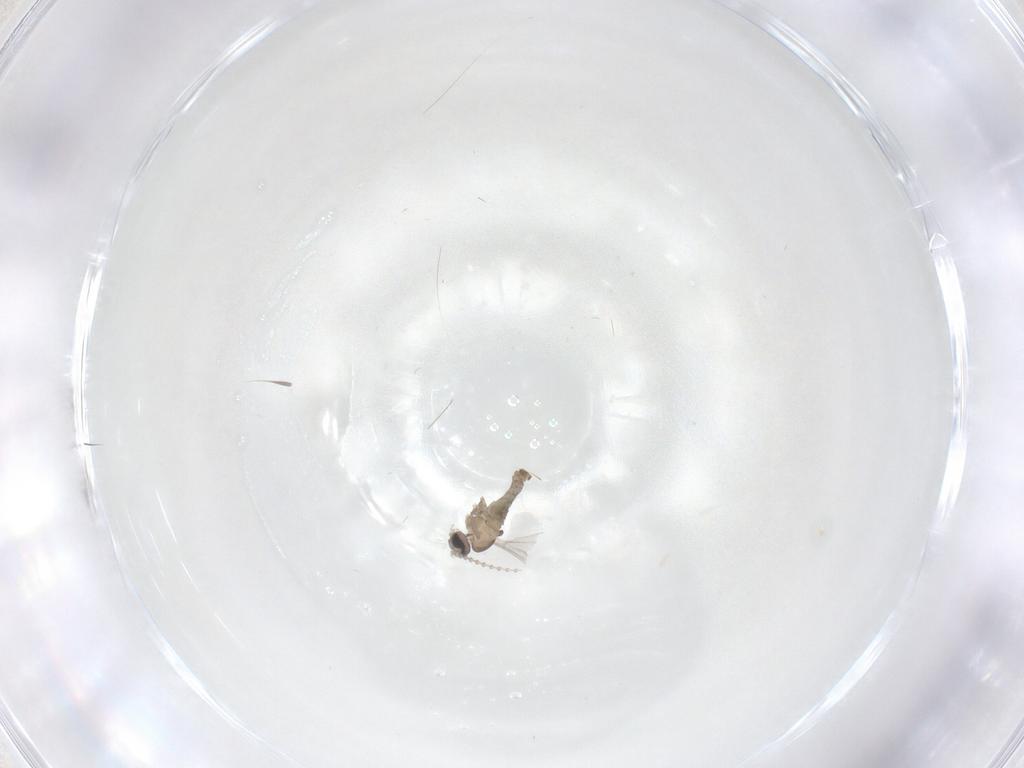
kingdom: Animalia
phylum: Arthropoda
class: Insecta
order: Diptera
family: Cecidomyiidae
